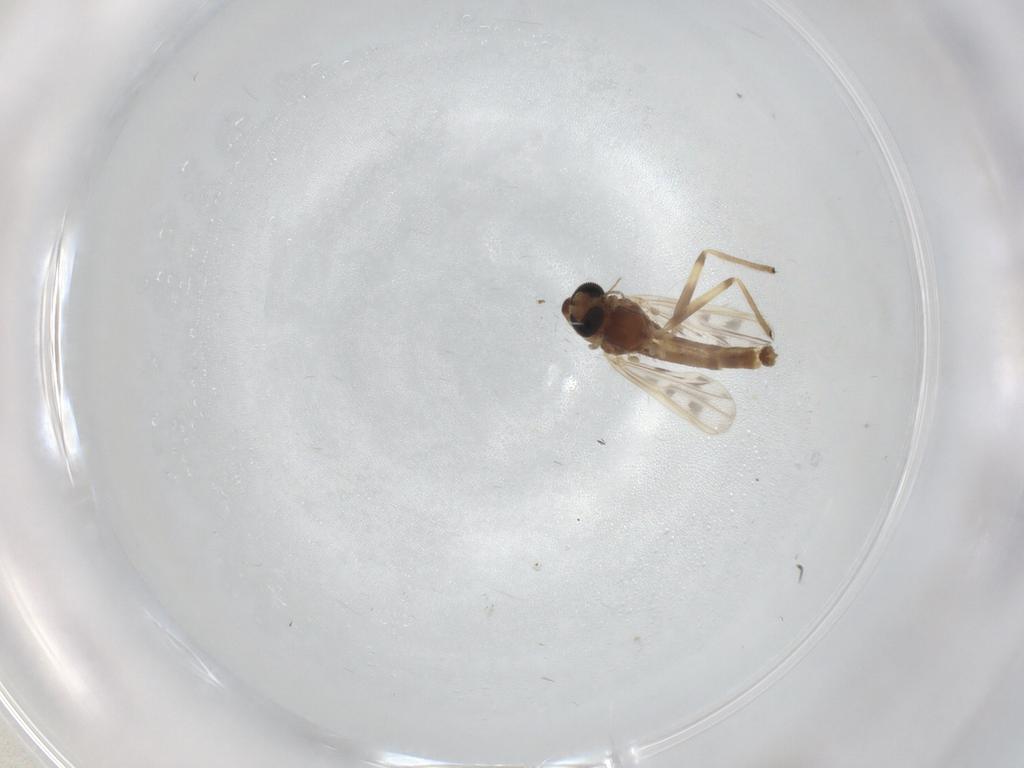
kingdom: Animalia
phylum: Arthropoda
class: Insecta
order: Diptera
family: Chironomidae
